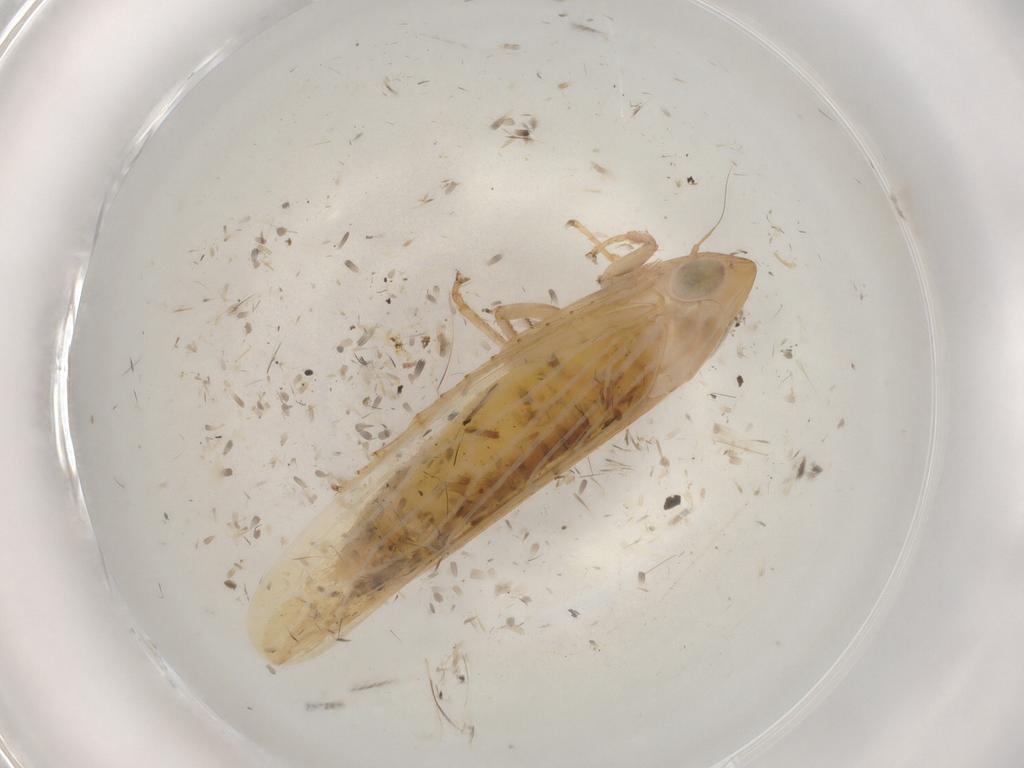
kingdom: Animalia
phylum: Arthropoda
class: Insecta
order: Hemiptera
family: Cicadellidae
